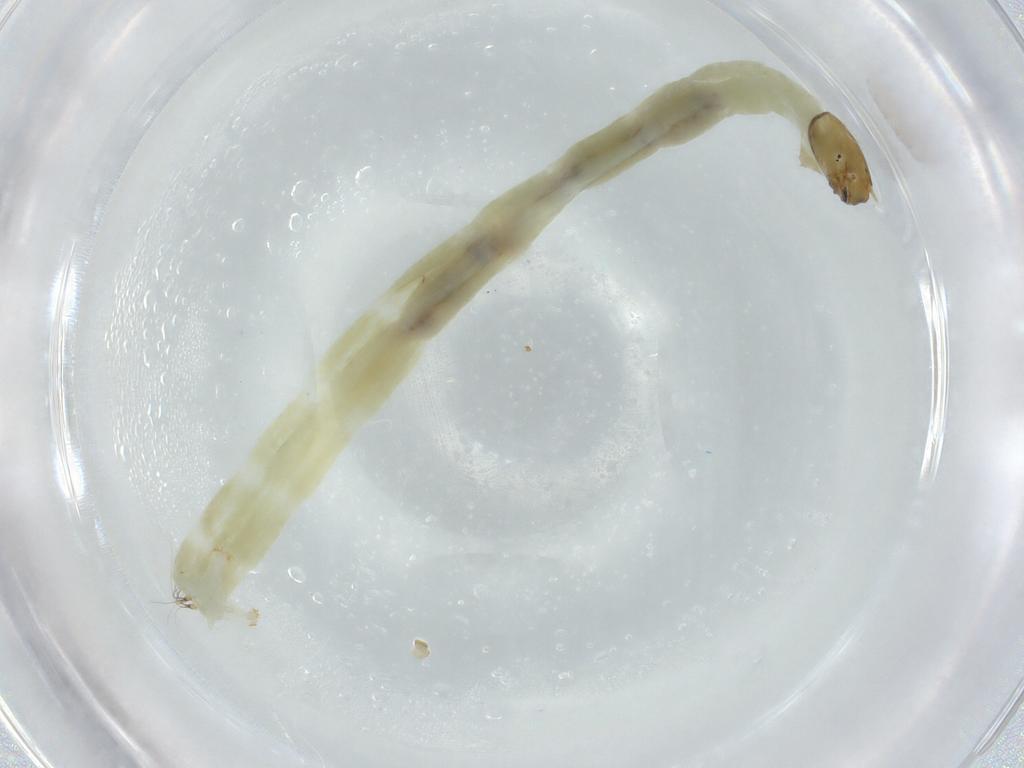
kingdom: Animalia
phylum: Arthropoda
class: Insecta
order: Diptera
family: Chironomidae
